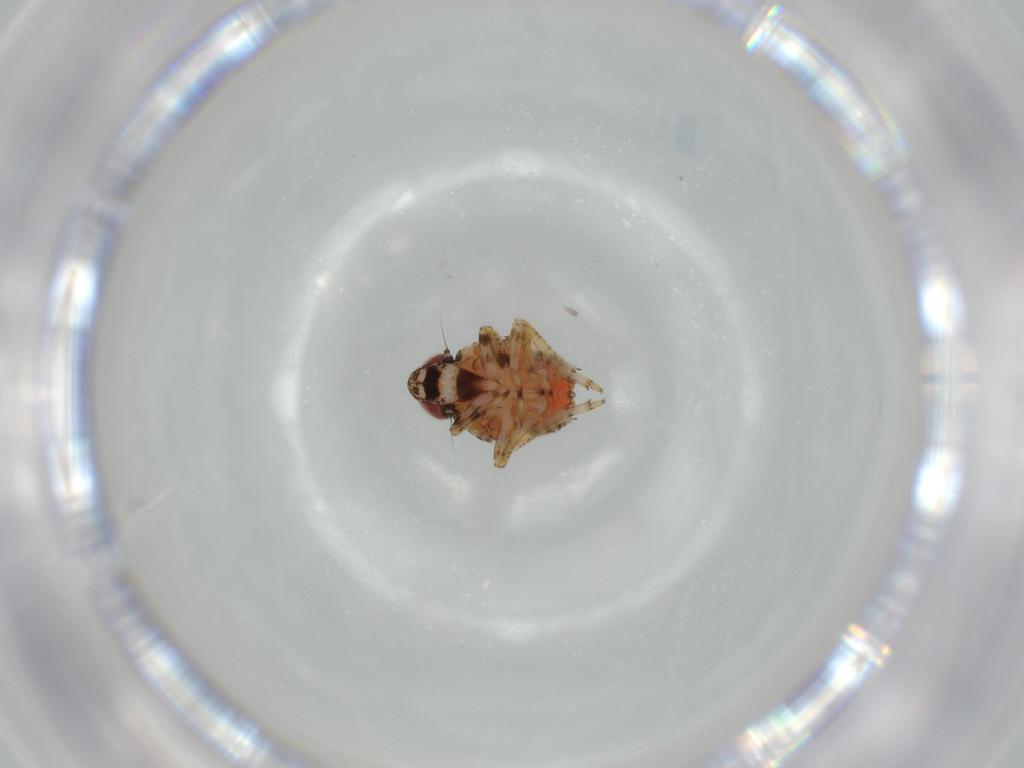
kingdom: Animalia
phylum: Arthropoda
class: Insecta
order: Hemiptera
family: Issidae
